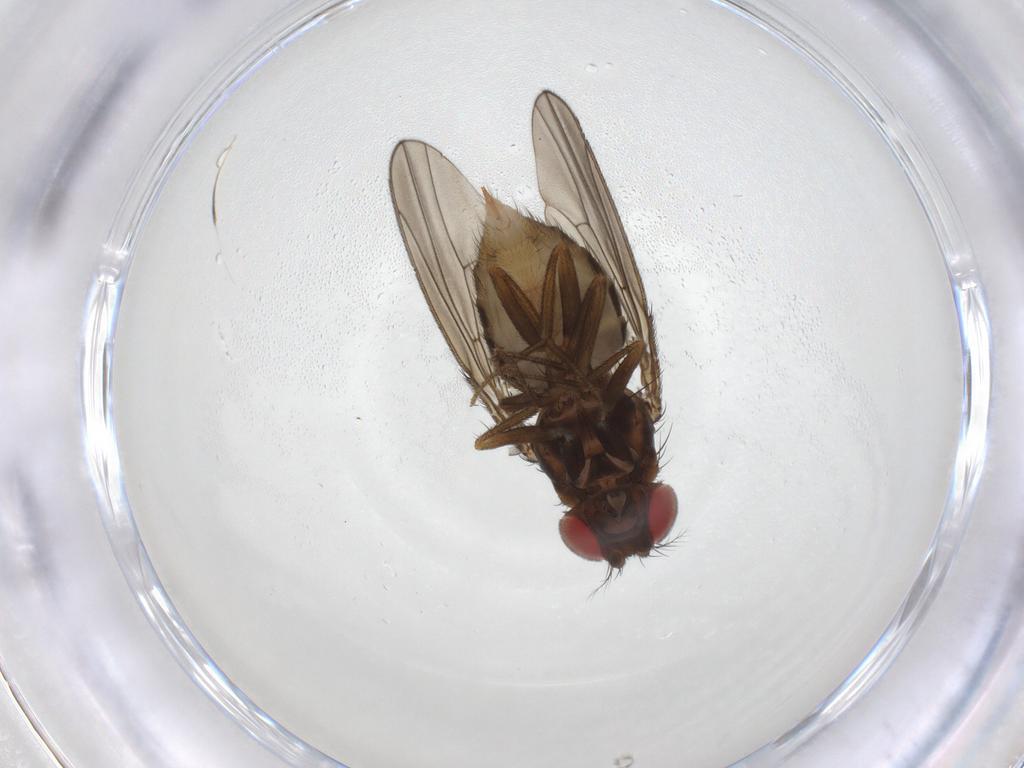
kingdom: Animalia
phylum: Arthropoda
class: Insecta
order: Diptera
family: Drosophilidae
